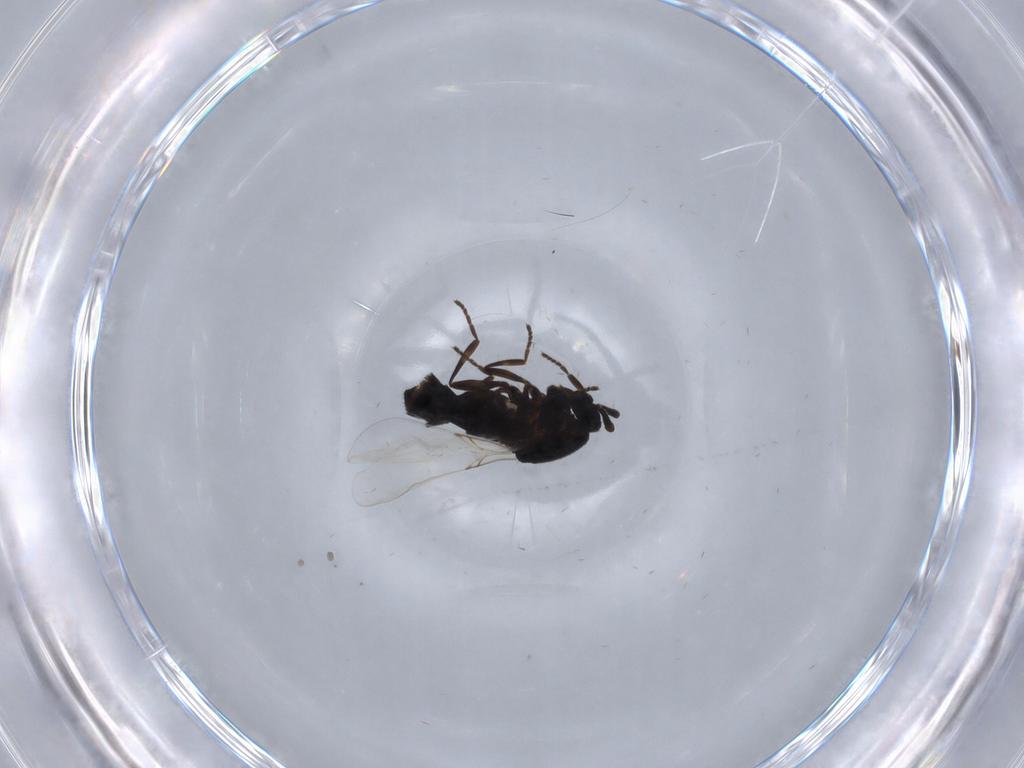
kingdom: Animalia
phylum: Arthropoda
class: Insecta
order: Diptera
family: Scatopsidae
